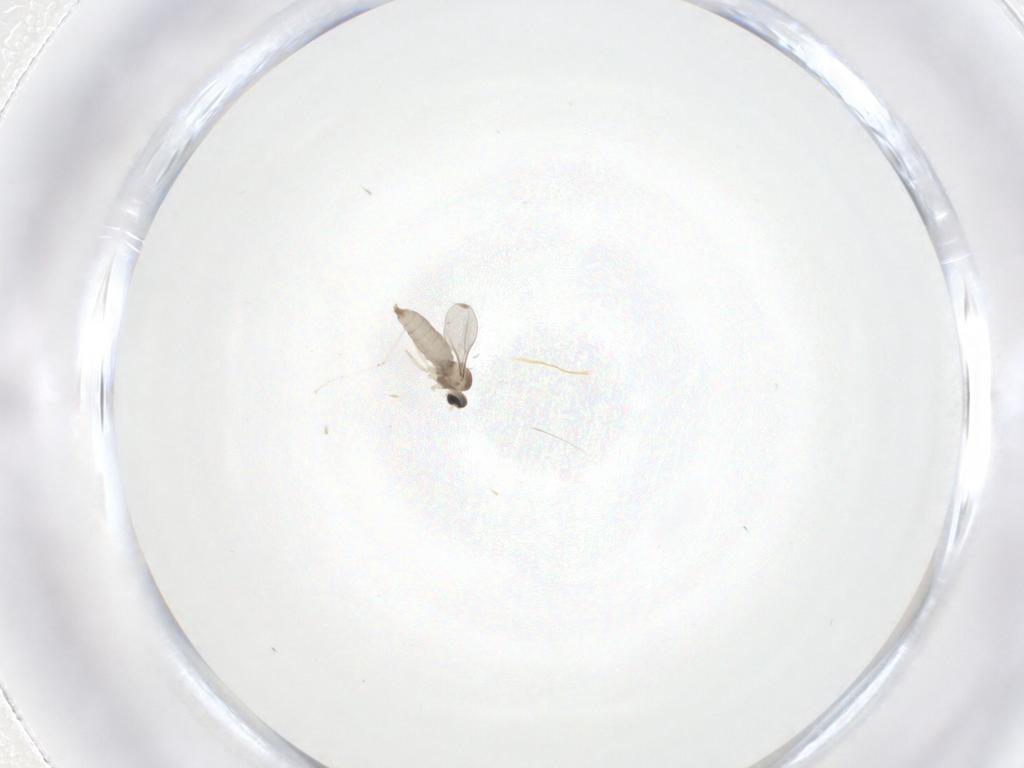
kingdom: Animalia
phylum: Arthropoda
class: Insecta
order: Diptera
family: Cecidomyiidae
